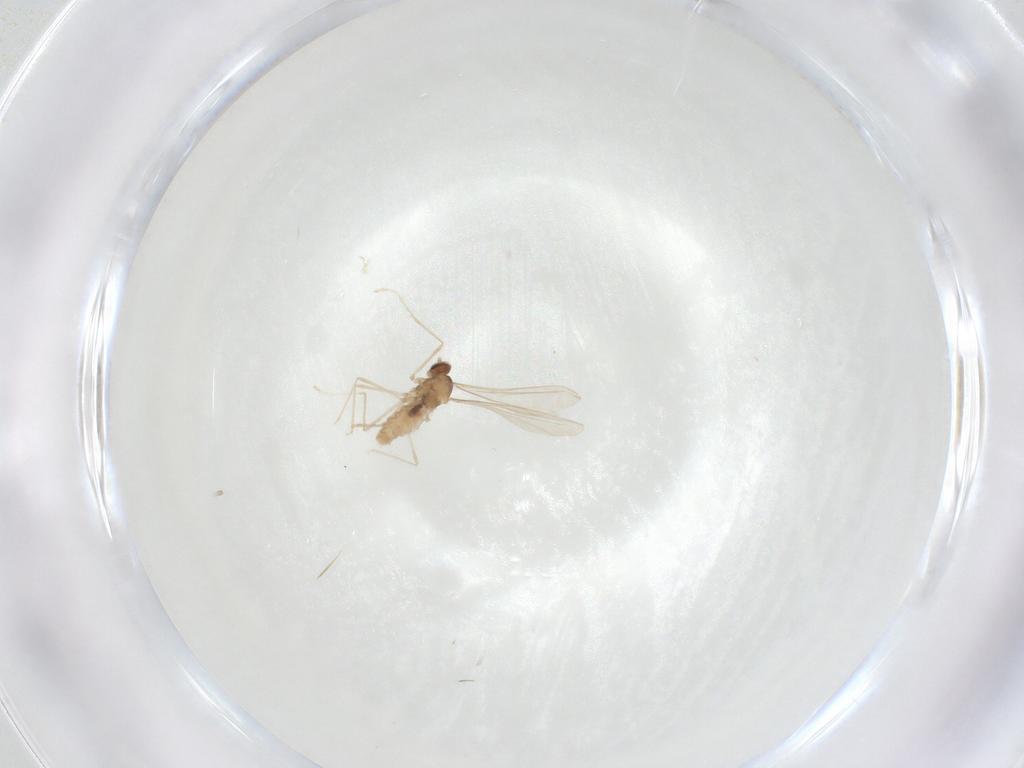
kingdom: Animalia
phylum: Arthropoda
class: Insecta
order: Diptera
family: Cecidomyiidae
